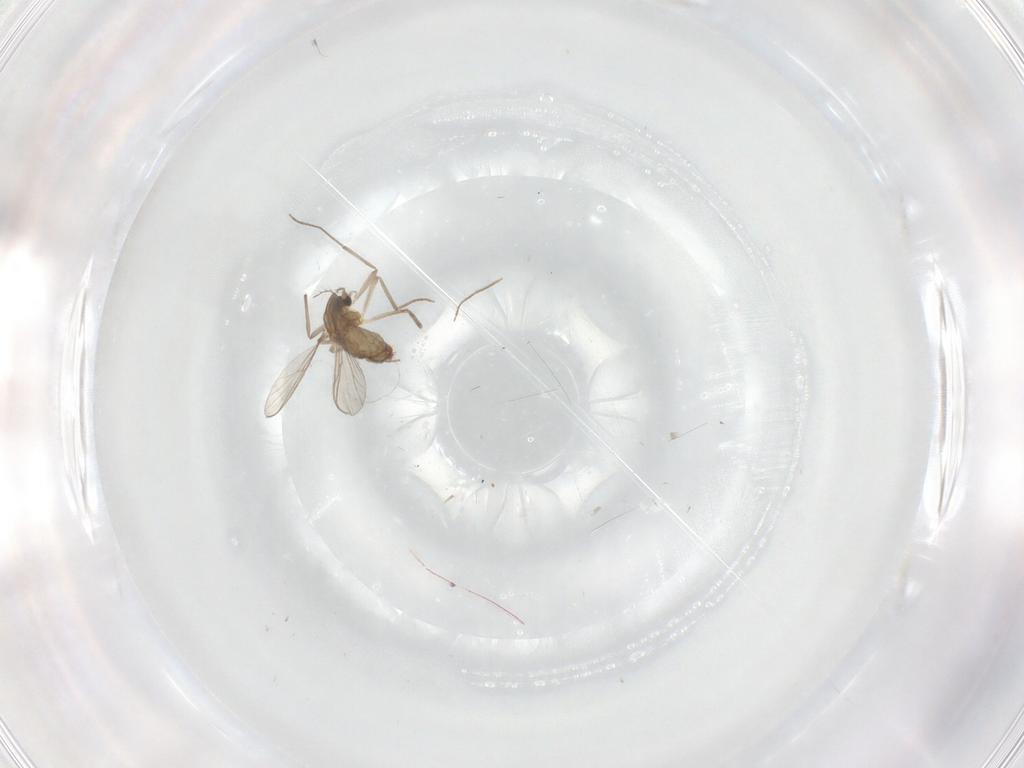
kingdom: Animalia
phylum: Arthropoda
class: Insecta
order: Diptera
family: Chironomidae
